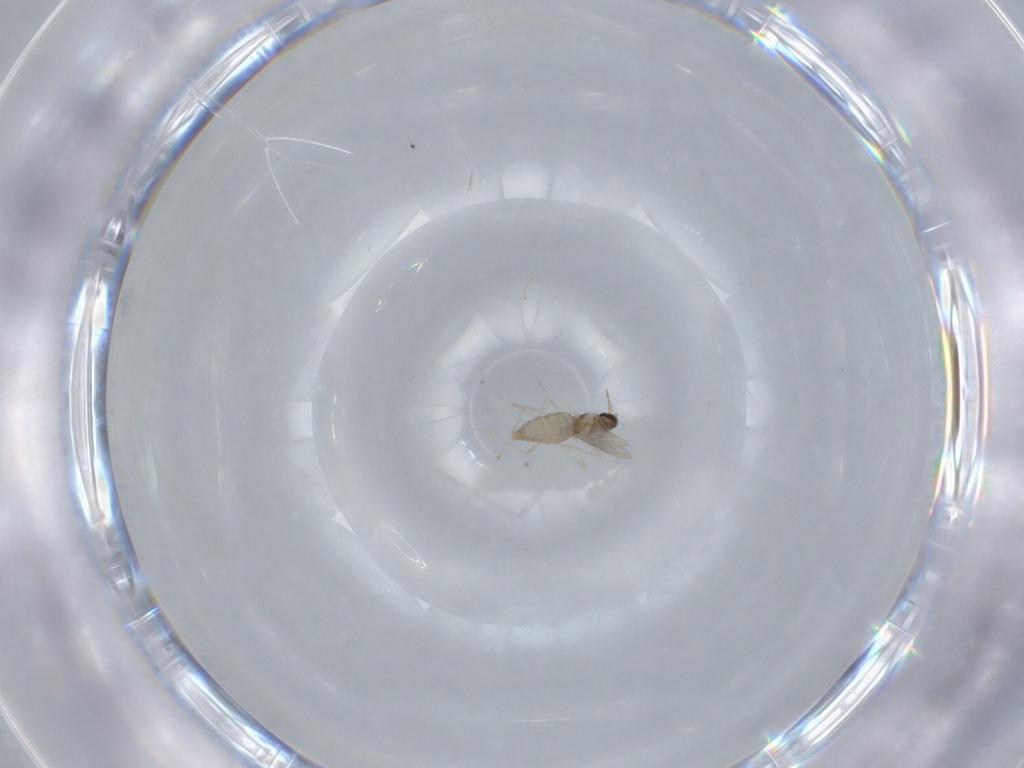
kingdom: Animalia
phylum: Arthropoda
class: Insecta
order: Diptera
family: Cecidomyiidae
